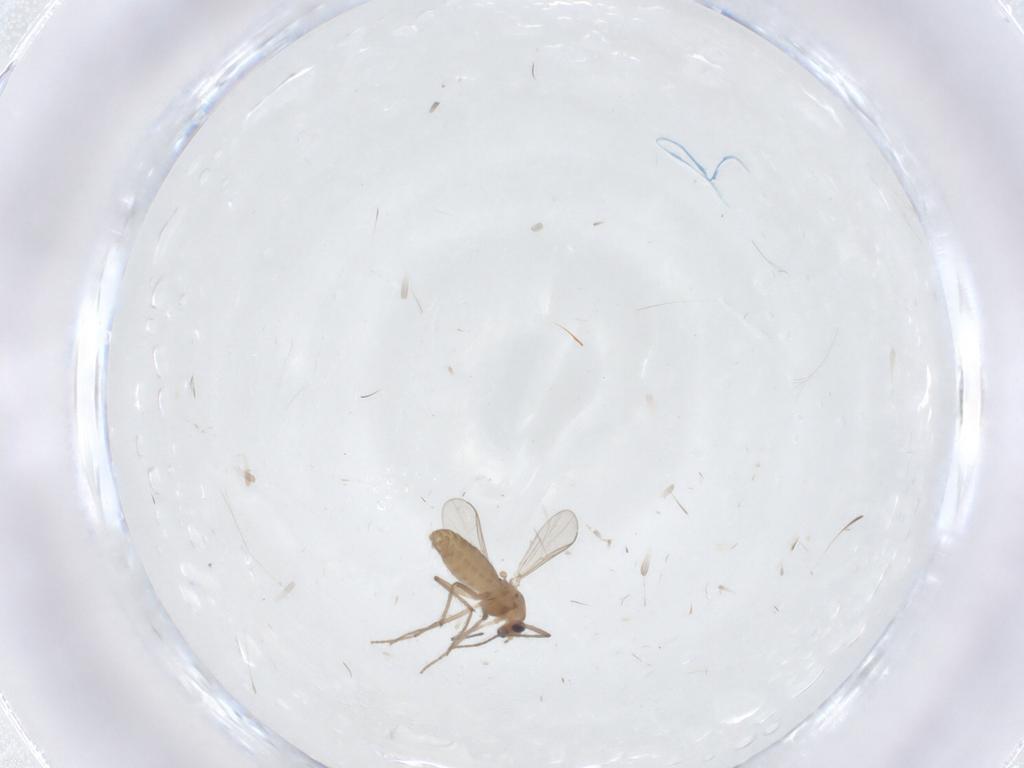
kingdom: Animalia
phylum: Arthropoda
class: Insecta
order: Diptera
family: Chironomidae
